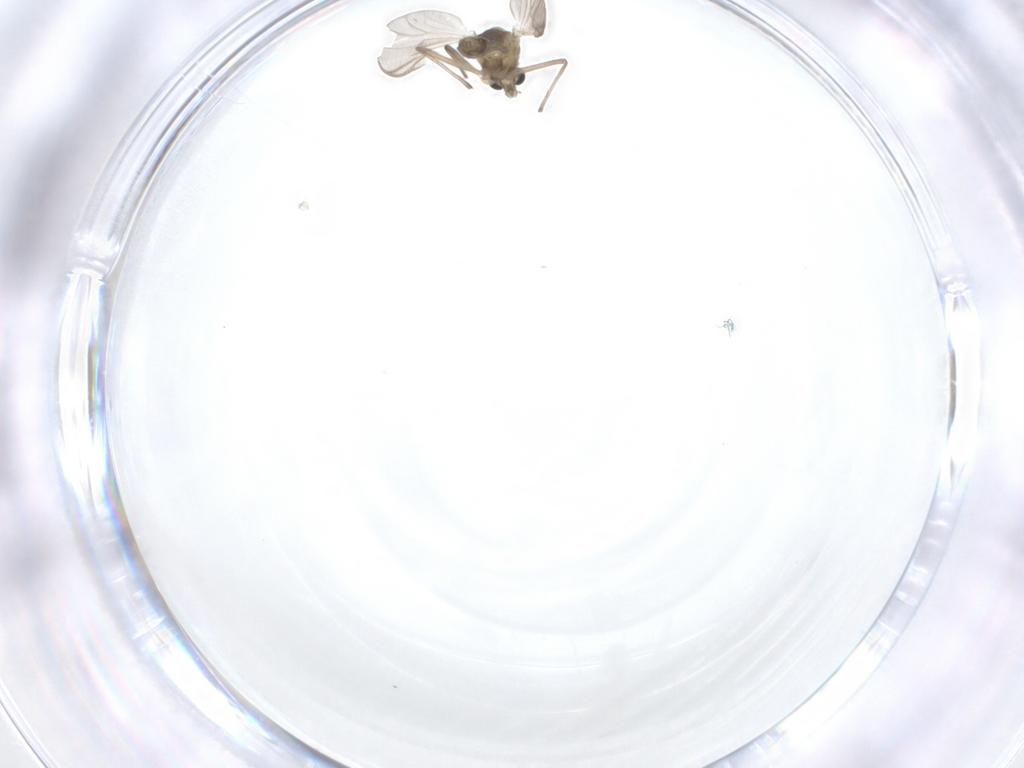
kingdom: Animalia
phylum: Arthropoda
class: Insecta
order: Diptera
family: Chironomidae
